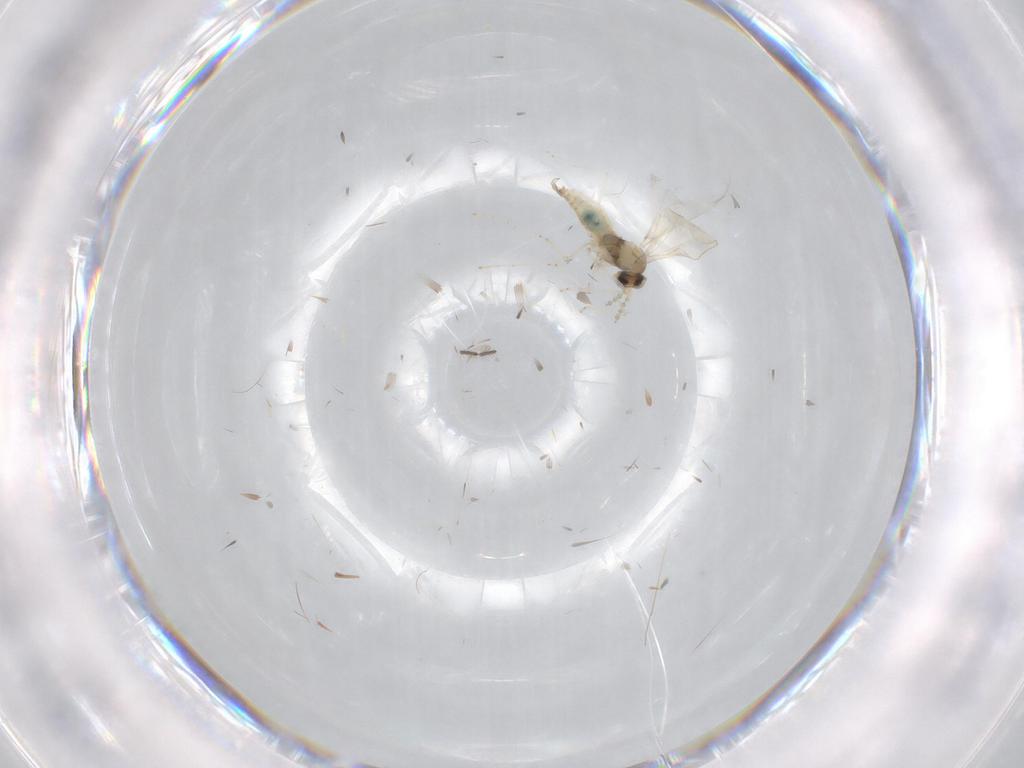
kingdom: Animalia
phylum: Arthropoda
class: Insecta
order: Diptera
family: Cecidomyiidae
